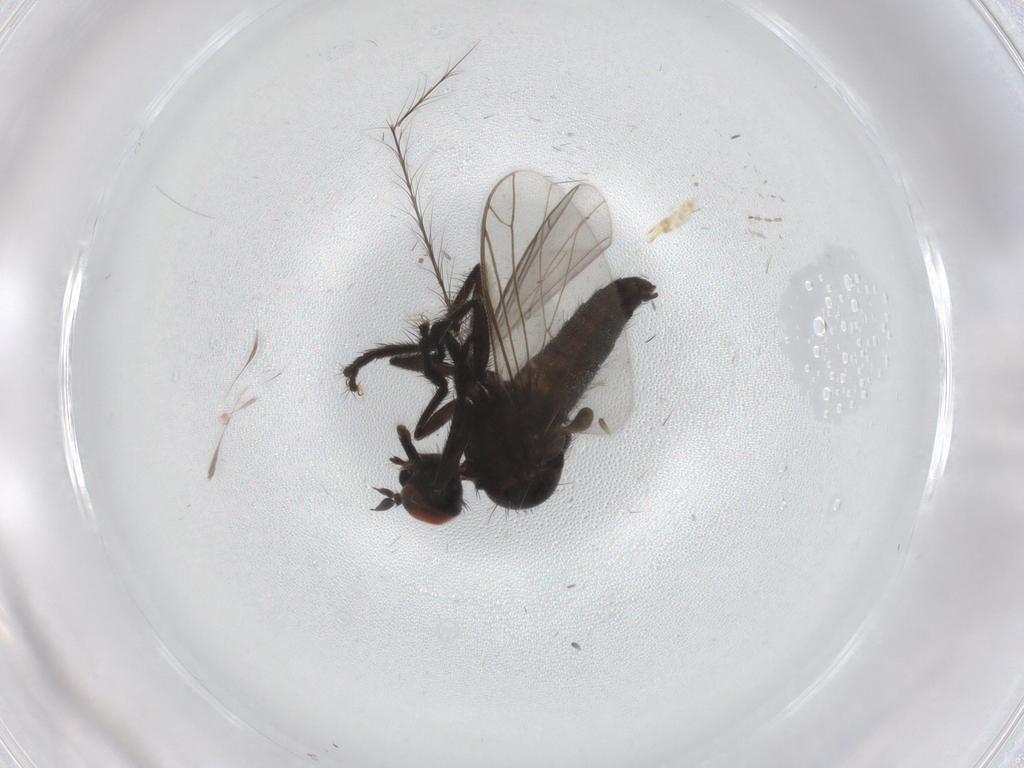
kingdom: Animalia
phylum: Arthropoda
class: Insecta
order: Diptera
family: Empididae
